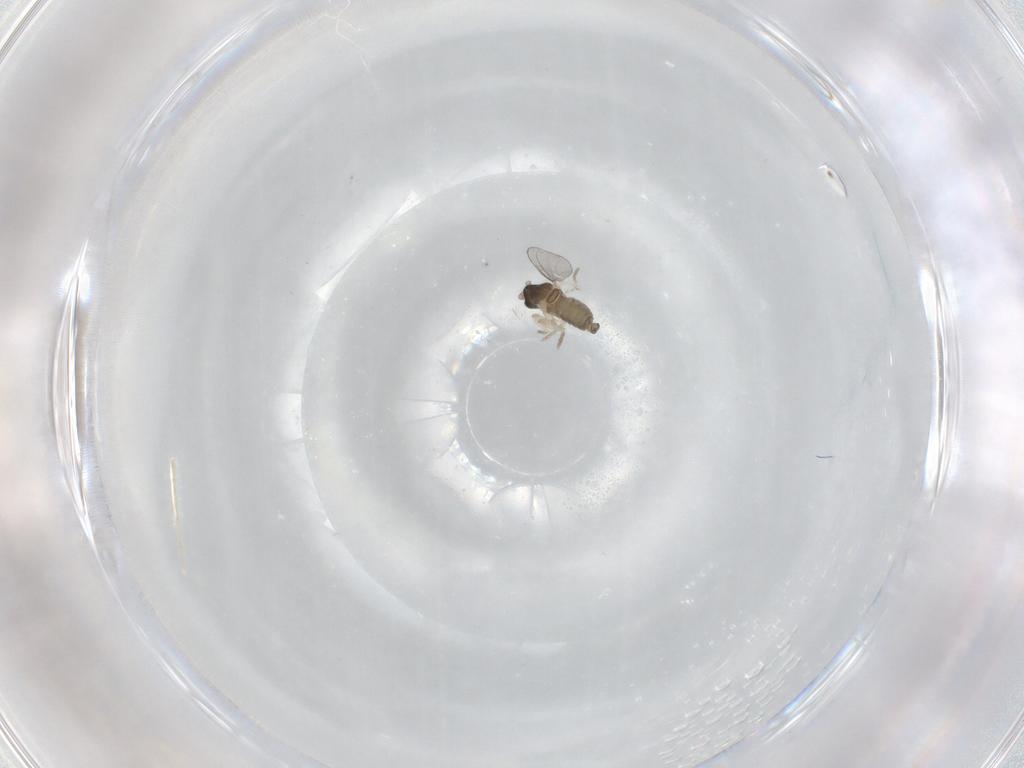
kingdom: Animalia
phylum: Arthropoda
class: Insecta
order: Diptera
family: Cecidomyiidae
